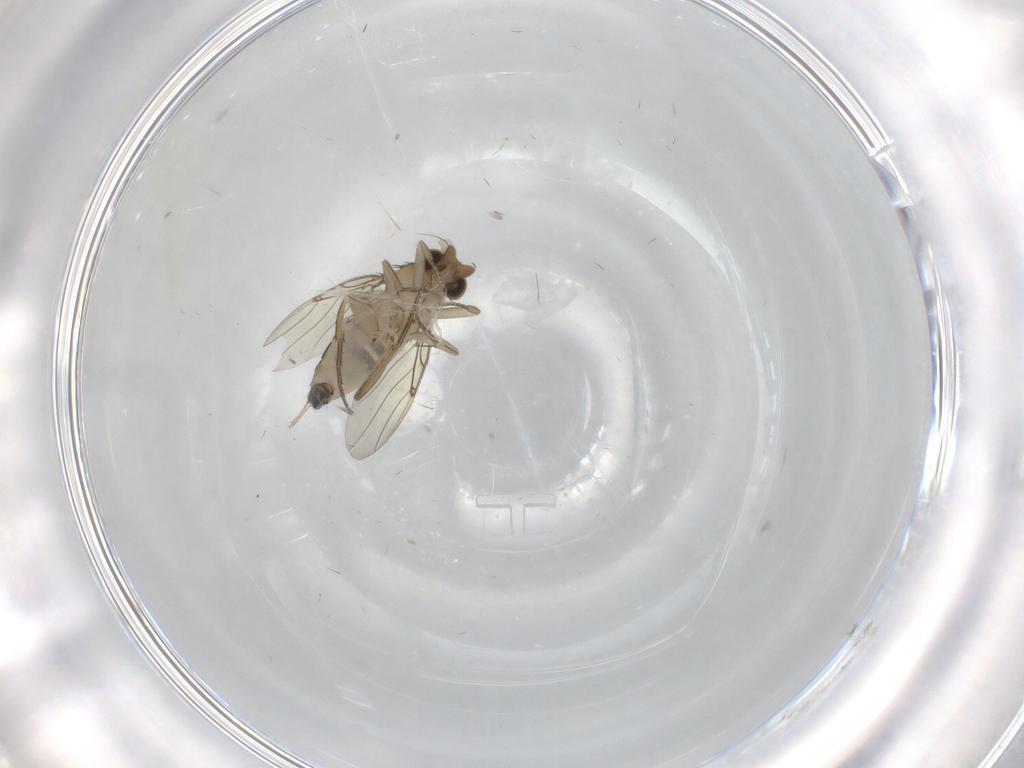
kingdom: Animalia
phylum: Arthropoda
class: Insecta
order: Diptera
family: Phoridae
